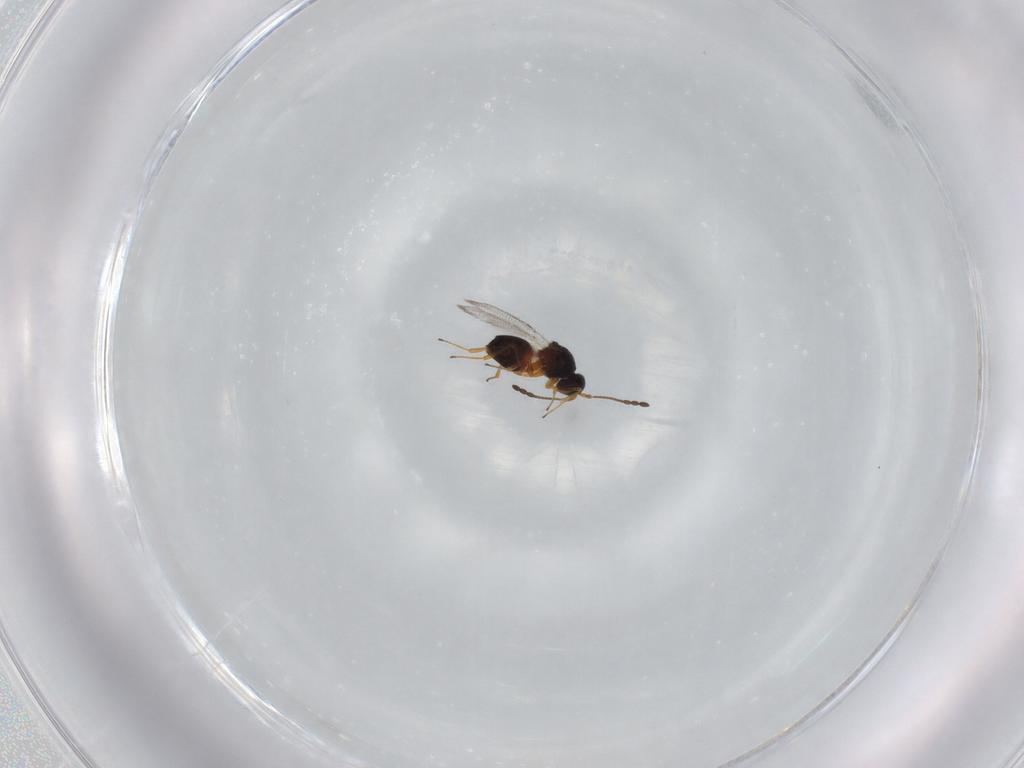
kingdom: Animalia
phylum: Arthropoda
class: Insecta
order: Hymenoptera
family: Figitidae
